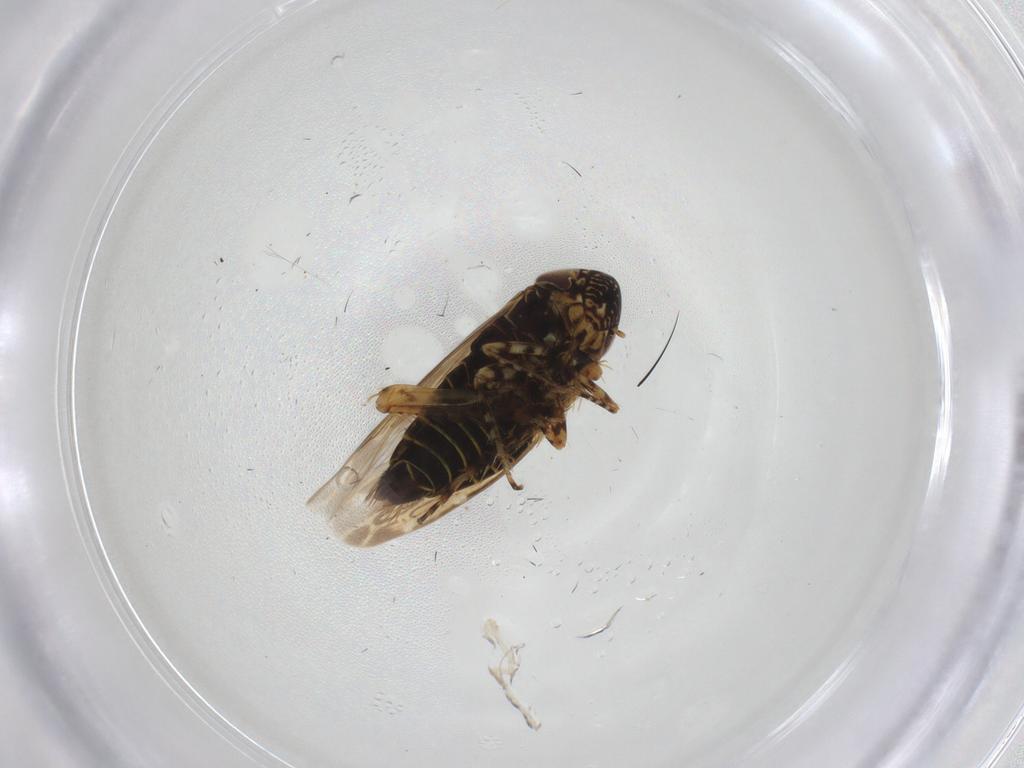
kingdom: Animalia
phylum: Arthropoda
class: Insecta
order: Hemiptera
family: Cicadellidae
